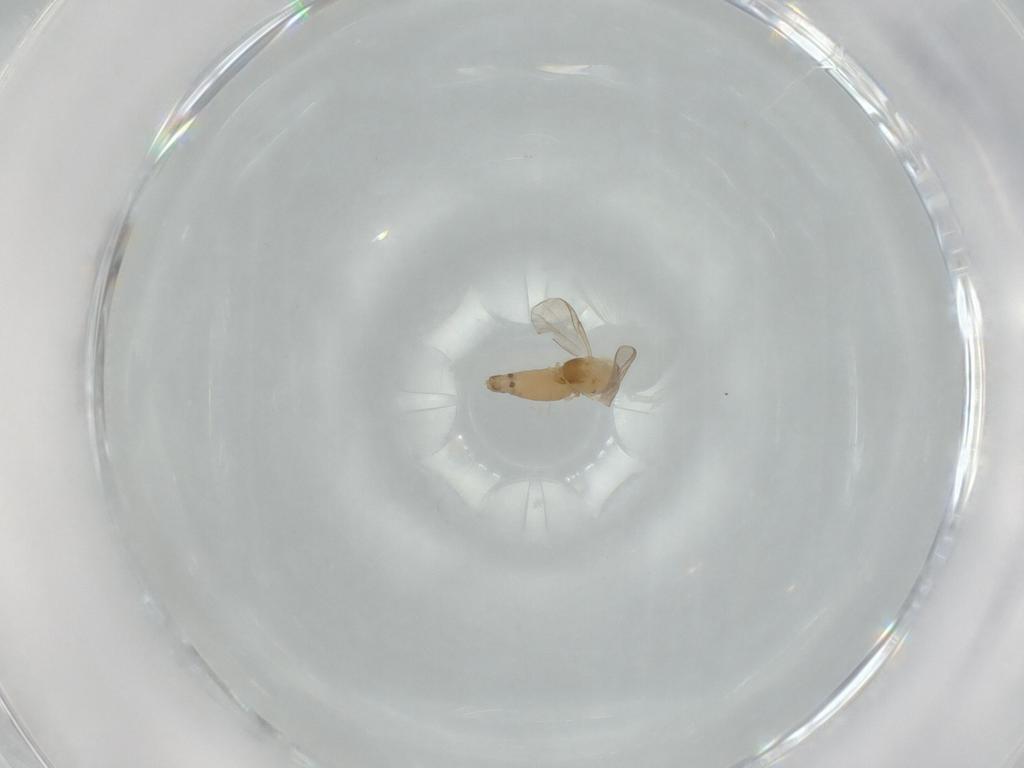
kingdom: Animalia
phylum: Arthropoda
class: Insecta
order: Diptera
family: Chironomidae
